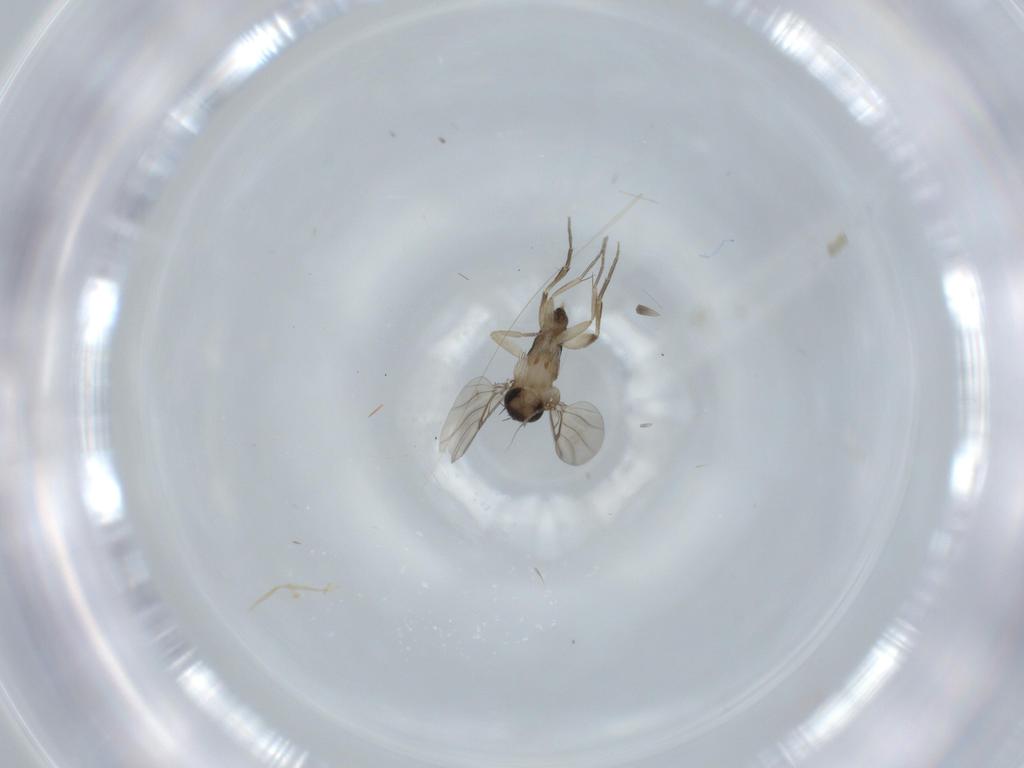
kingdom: Animalia
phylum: Arthropoda
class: Insecta
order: Diptera
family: Phoridae
